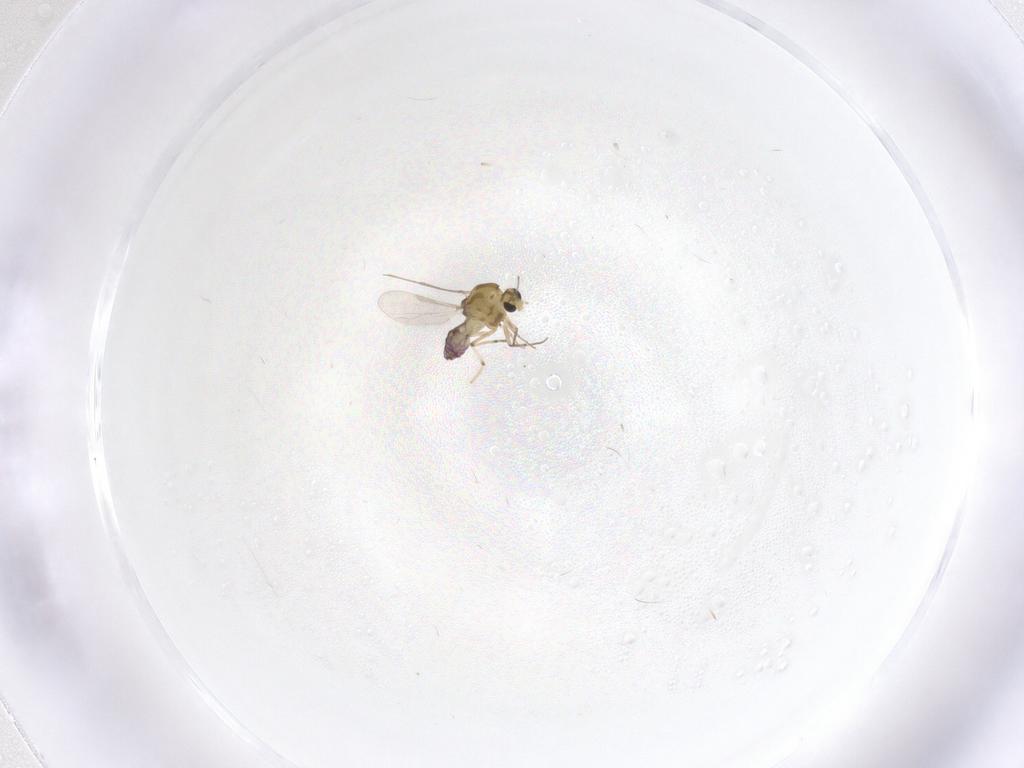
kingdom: Animalia
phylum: Arthropoda
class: Insecta
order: Diptera
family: Chironomidae
